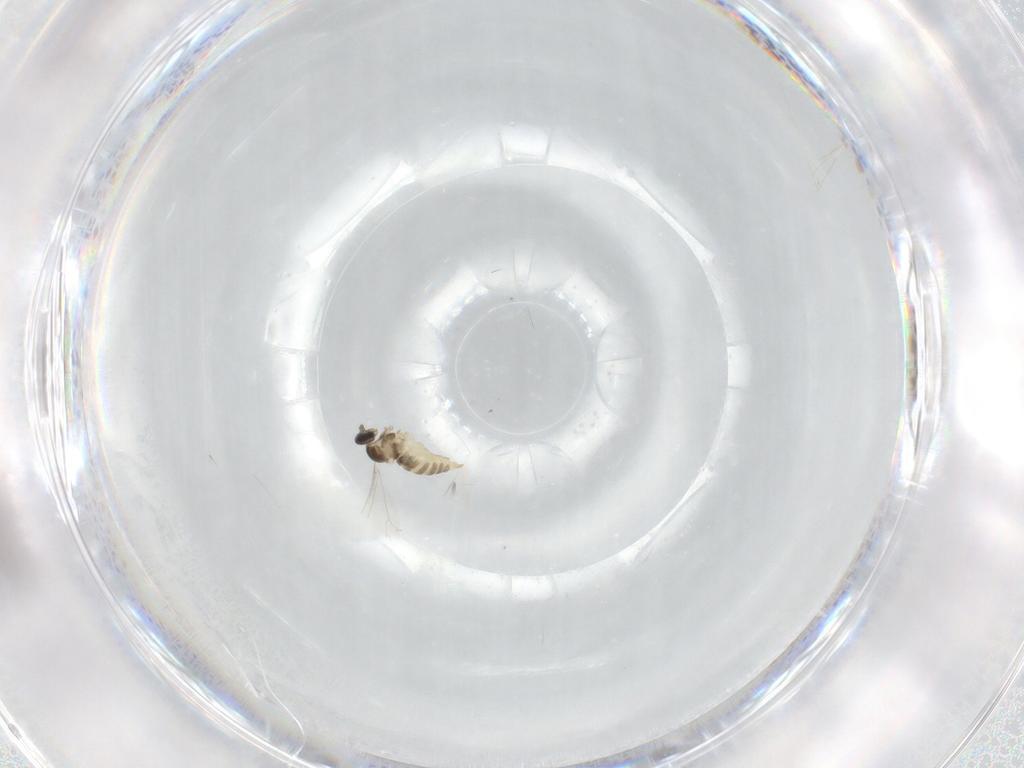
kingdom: Animalia
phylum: Arthropoda
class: Insecta
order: Diptera
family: Cecidomyiidae
